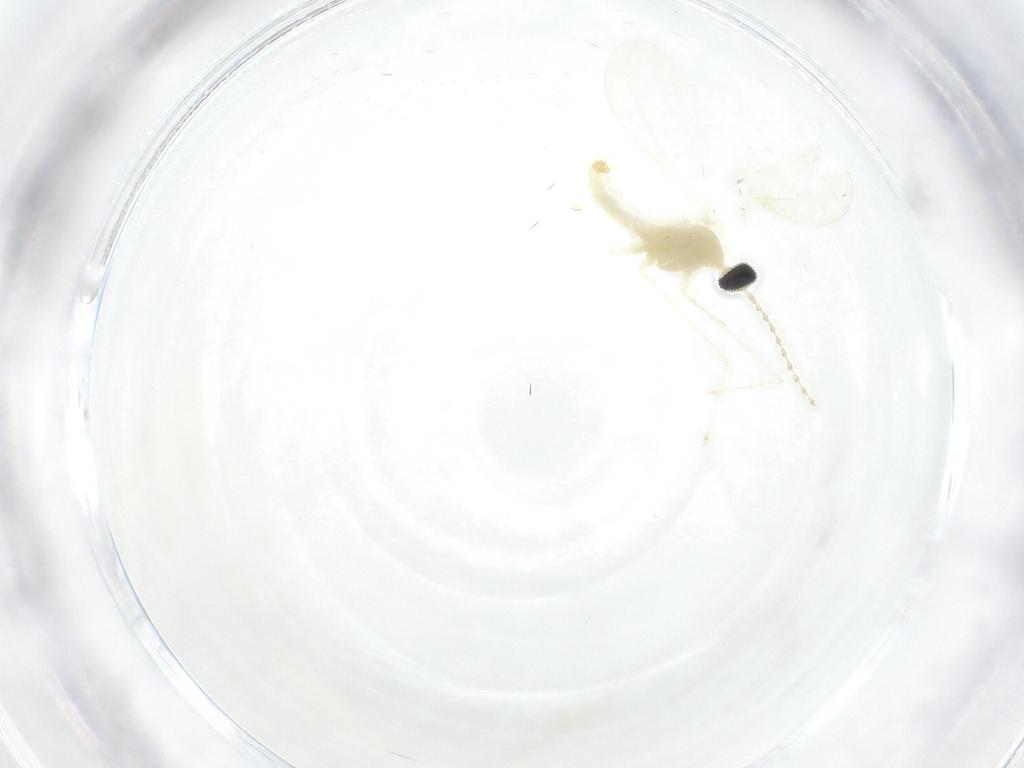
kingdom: Animalia
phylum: Arthropoda
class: Insecta
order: Diptera
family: Mycetophilidae
